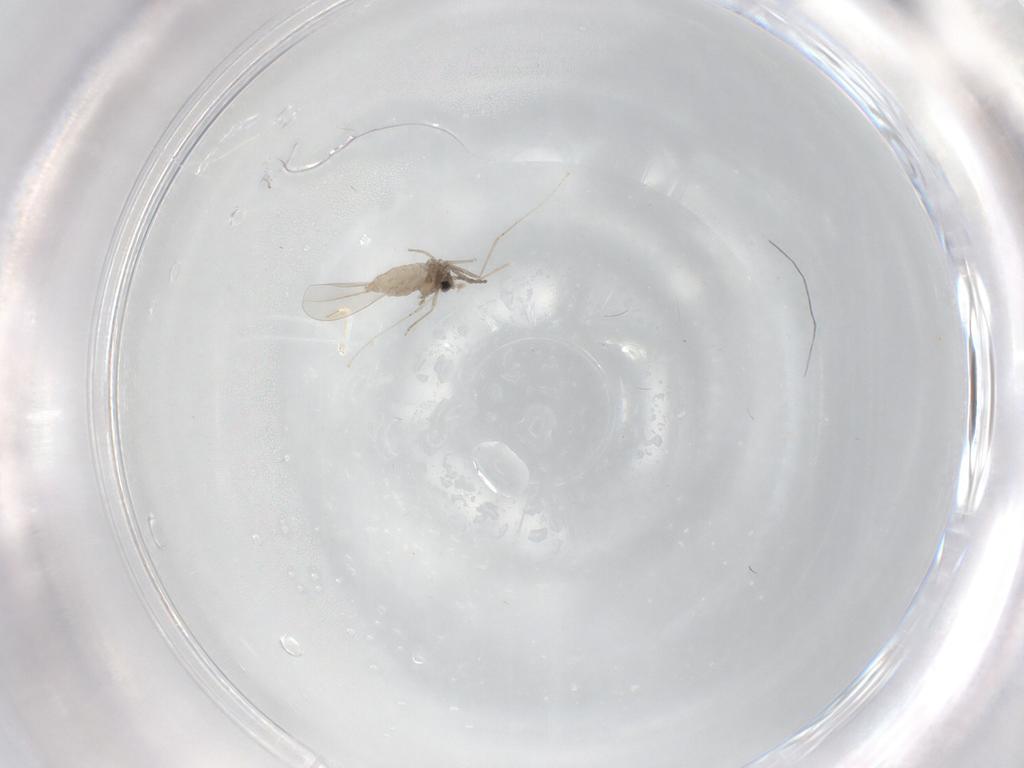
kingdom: Animalia
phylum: Arthropoda
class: Insecta
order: Diptera
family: Cecidomyiidae
